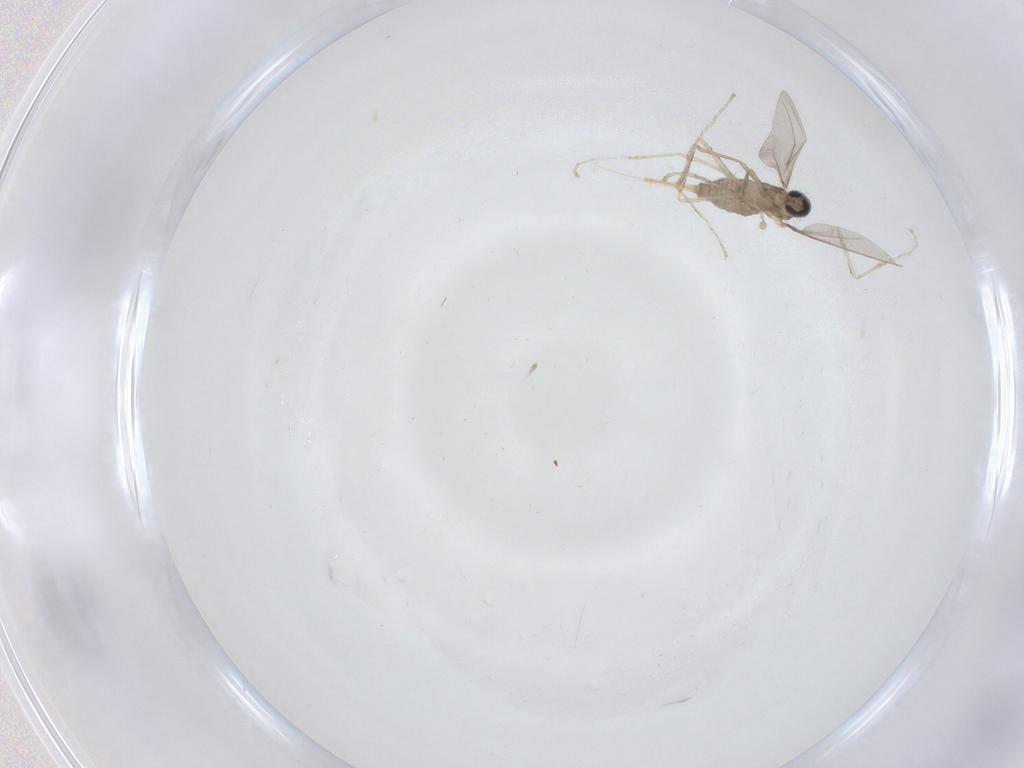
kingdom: Animalia
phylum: Arthropoda
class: Insecta
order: Diptera
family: Cecidomyiidae
